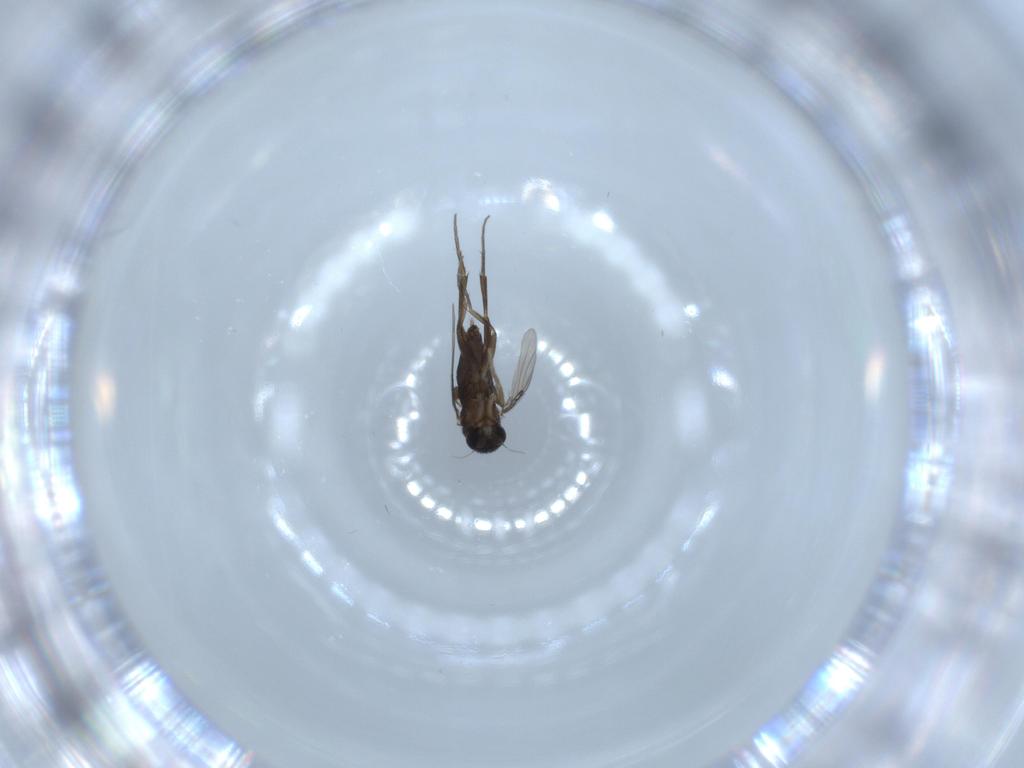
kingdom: Animalia
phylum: Arthropoda
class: Insecta
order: Diptera
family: Phoridae
